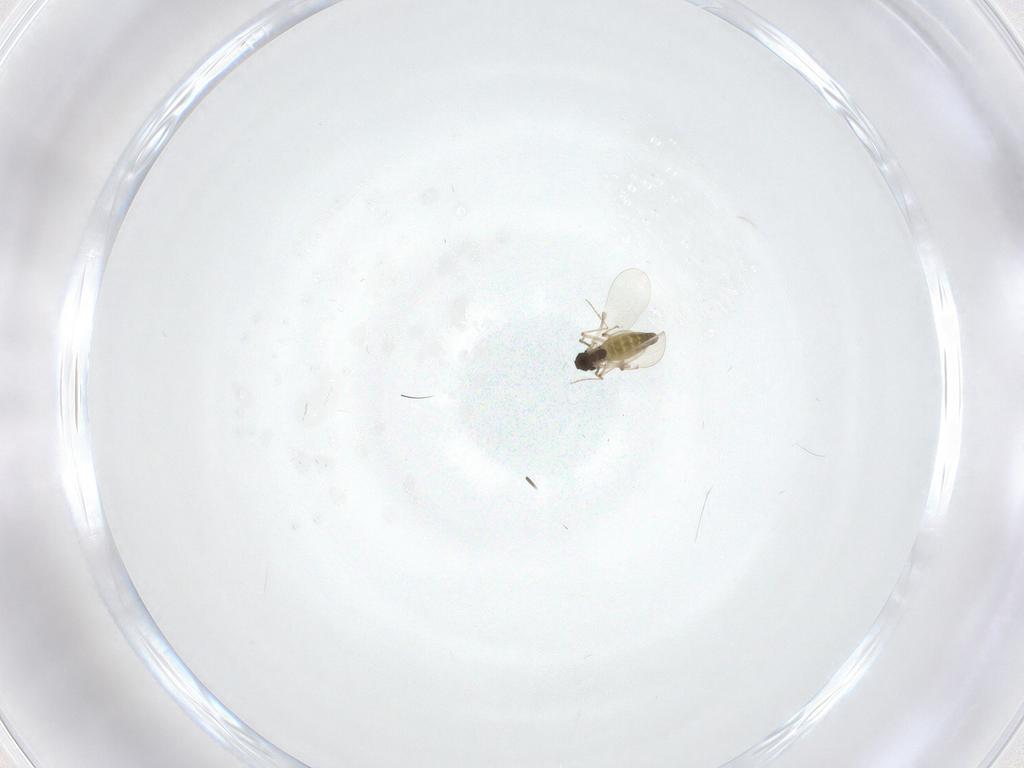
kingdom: Animalia
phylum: Arthropoda
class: Insecta
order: Diptera
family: Chironomidae
